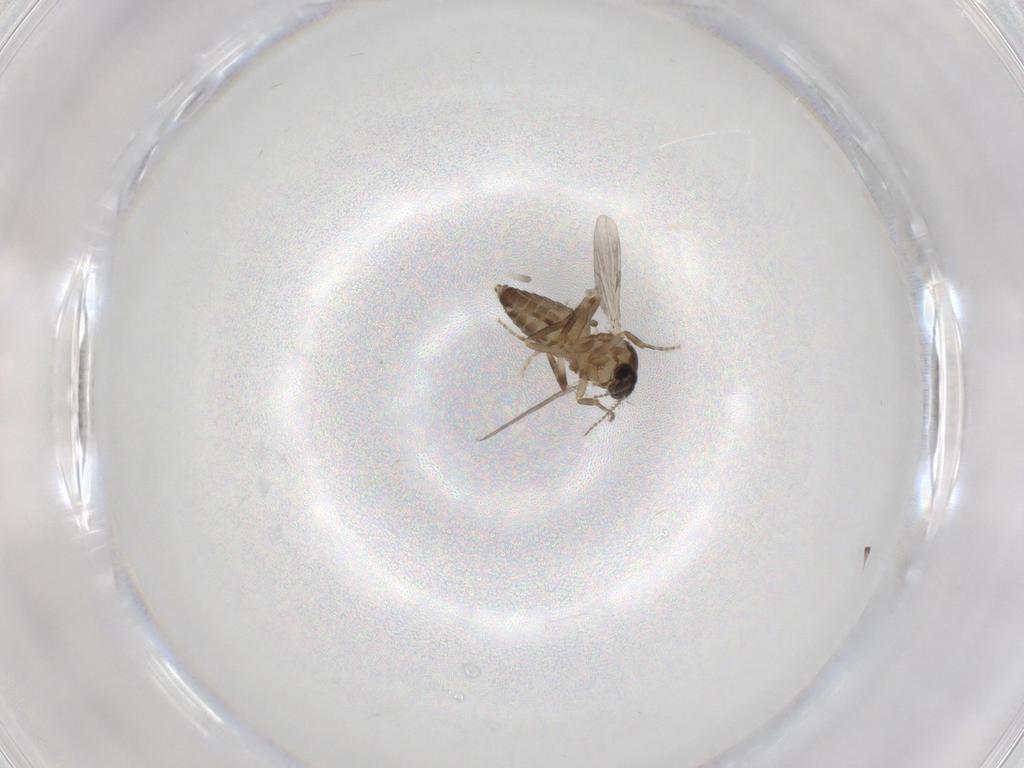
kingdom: Animalia
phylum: Arthropoda
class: Insecta
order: Diptera
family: Ceratopogonidae
